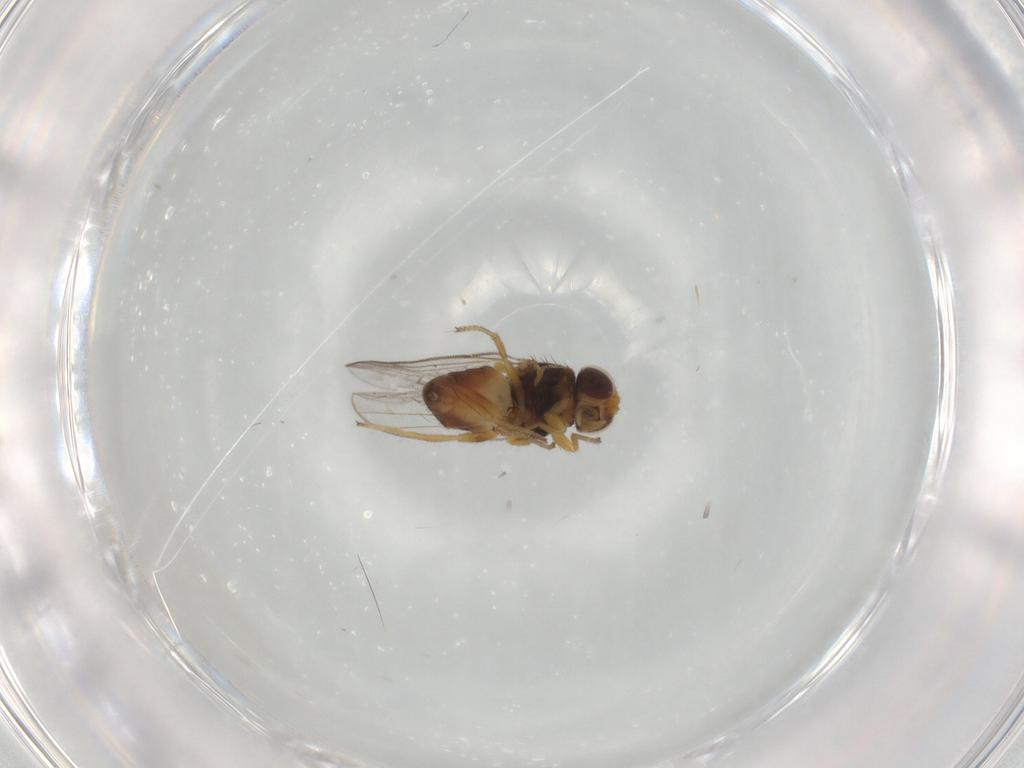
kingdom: Animalia
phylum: Arthropoda
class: Insecta
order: Diptera
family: Chloropidae
